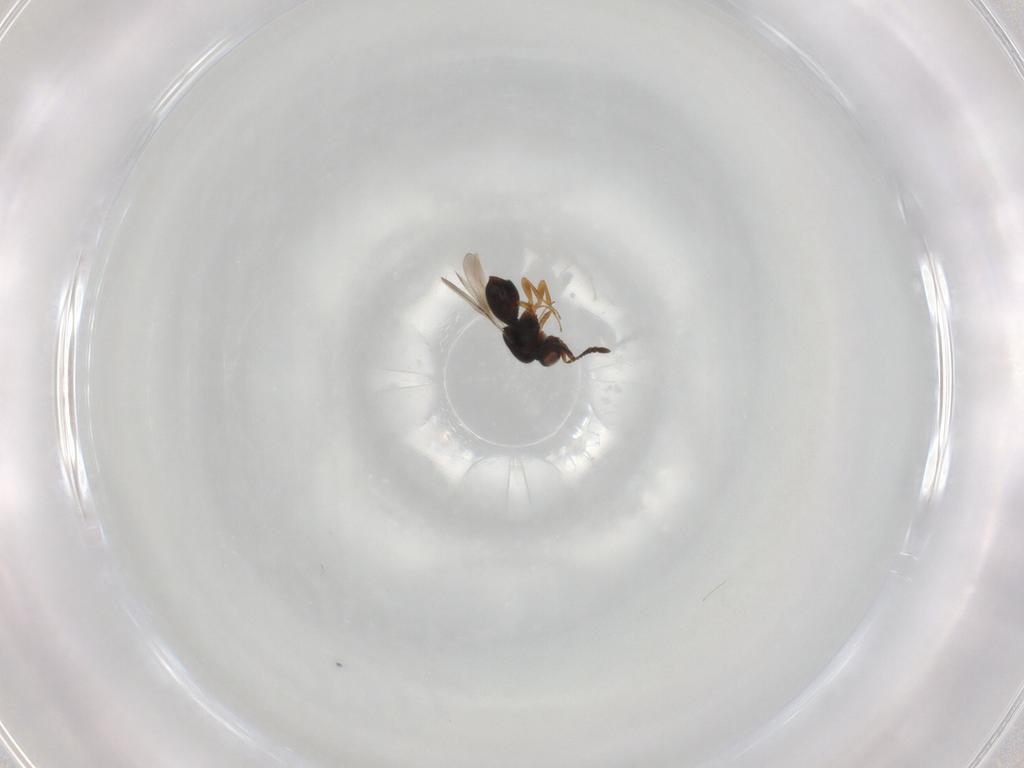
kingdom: Animalia
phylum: Arthropoda
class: Insecta
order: Hymenoptera
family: Ceraphronidae
